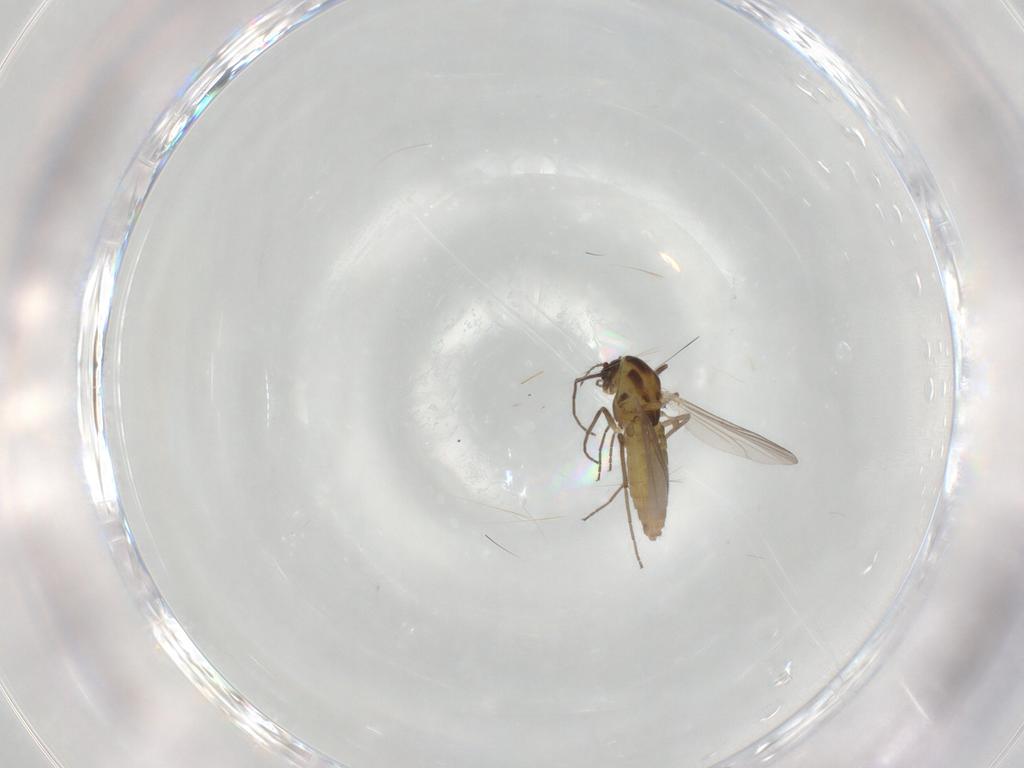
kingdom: Animalia
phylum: Arthropoda
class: Insecta
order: Diptera
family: Chironomidae
